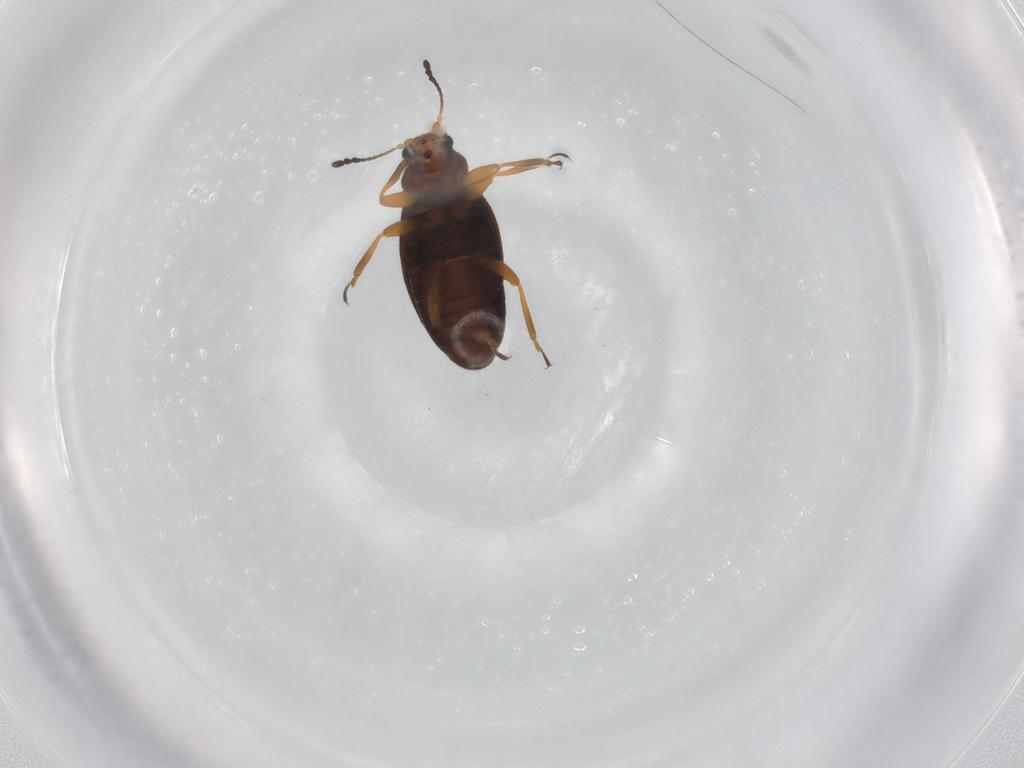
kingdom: Animalia
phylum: Arthropoda
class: Insecta
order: Coleoptera
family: Latridiidae
